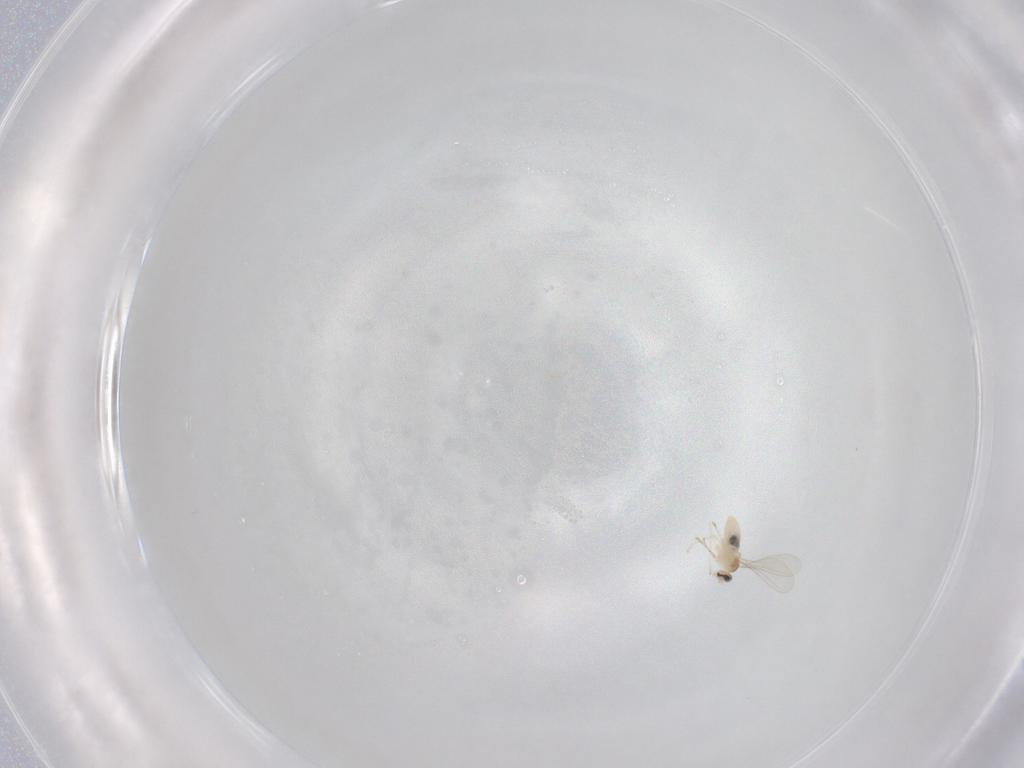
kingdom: Animalia
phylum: Arthropoda
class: Insecta
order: Diptera
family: Cecidomyiidae
